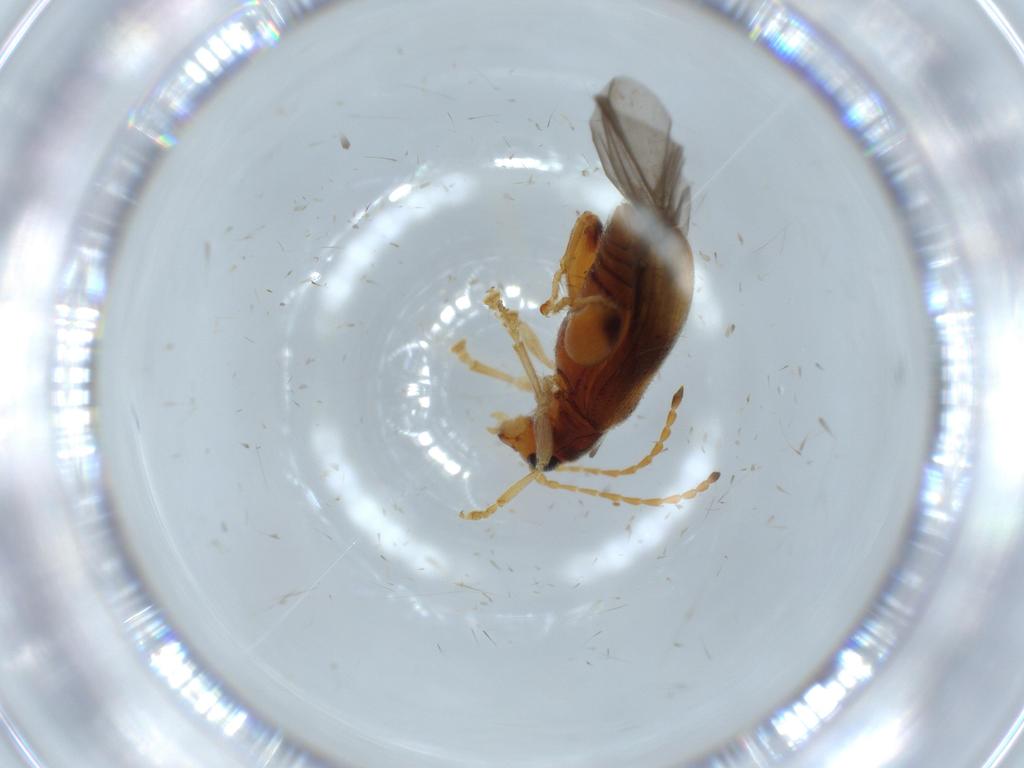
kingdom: Animalia
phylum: Arthropoda
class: Insecta
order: Coleoptera
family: Chrysomelidae
